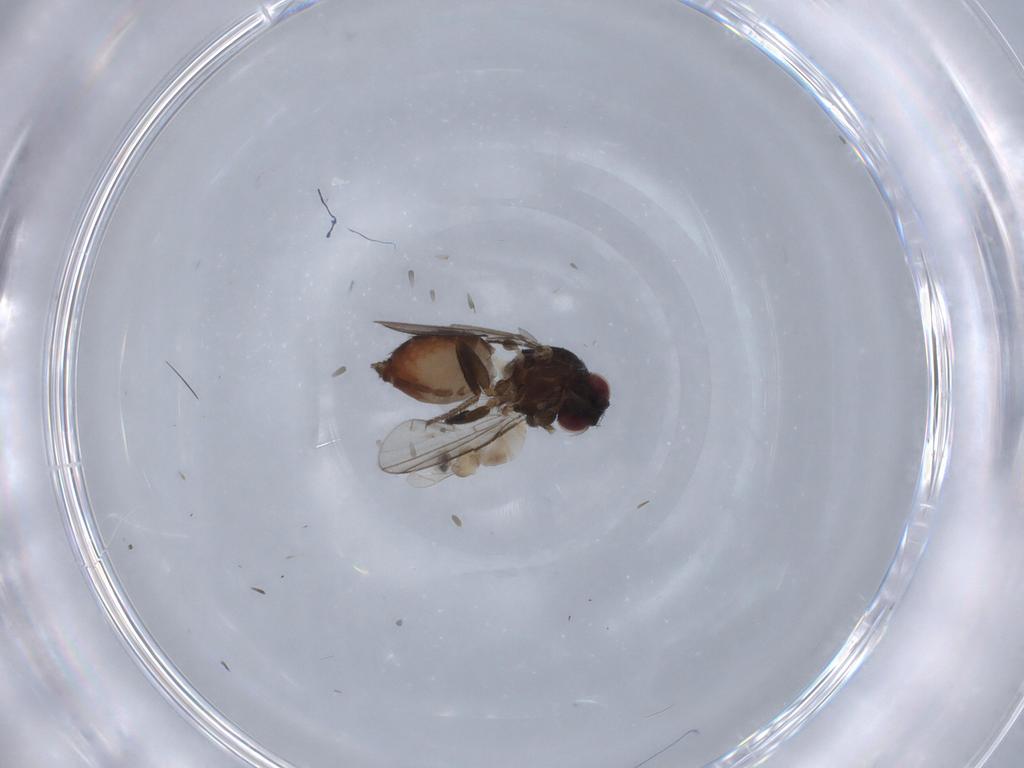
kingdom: Animalia
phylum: Arthropoda
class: Insecta
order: Diptera
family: Milichiidae
